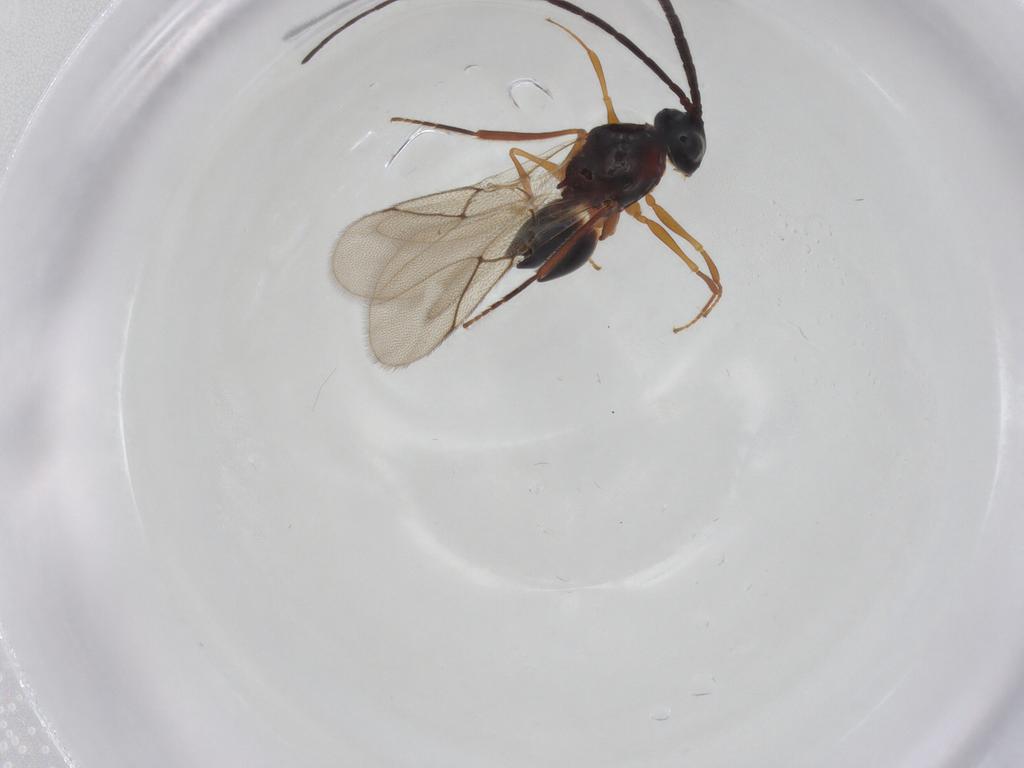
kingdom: Animalia
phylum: Arthropoda
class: Insecta
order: Hymenoptera
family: Figitidae
